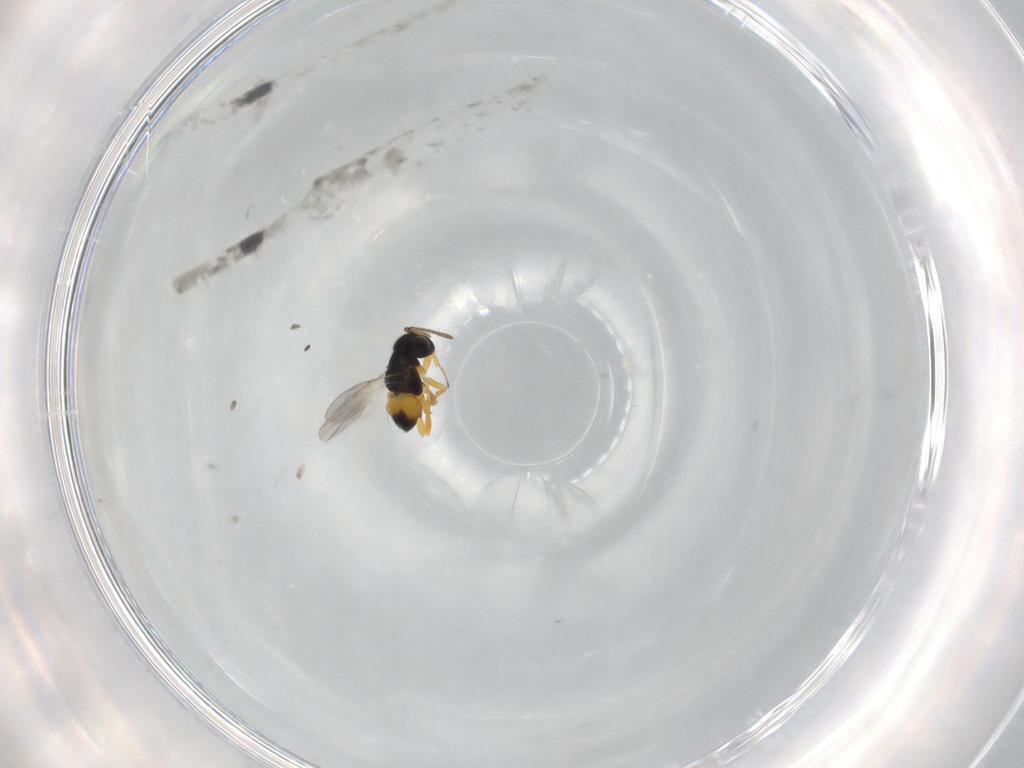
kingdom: Animalia
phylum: Arthropoda
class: Insecta
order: Hymenoptera
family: Encyrtidae
